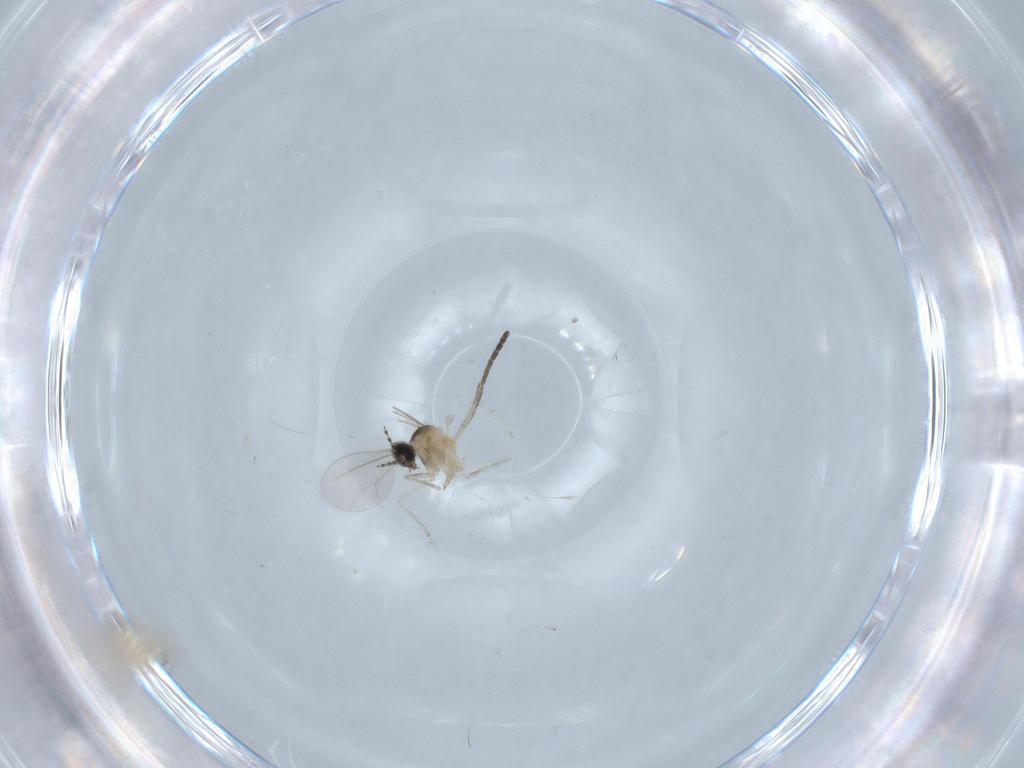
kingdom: Animalia
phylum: Arthropoda
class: Insecta
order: Diptera
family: Cecidomyiidae
